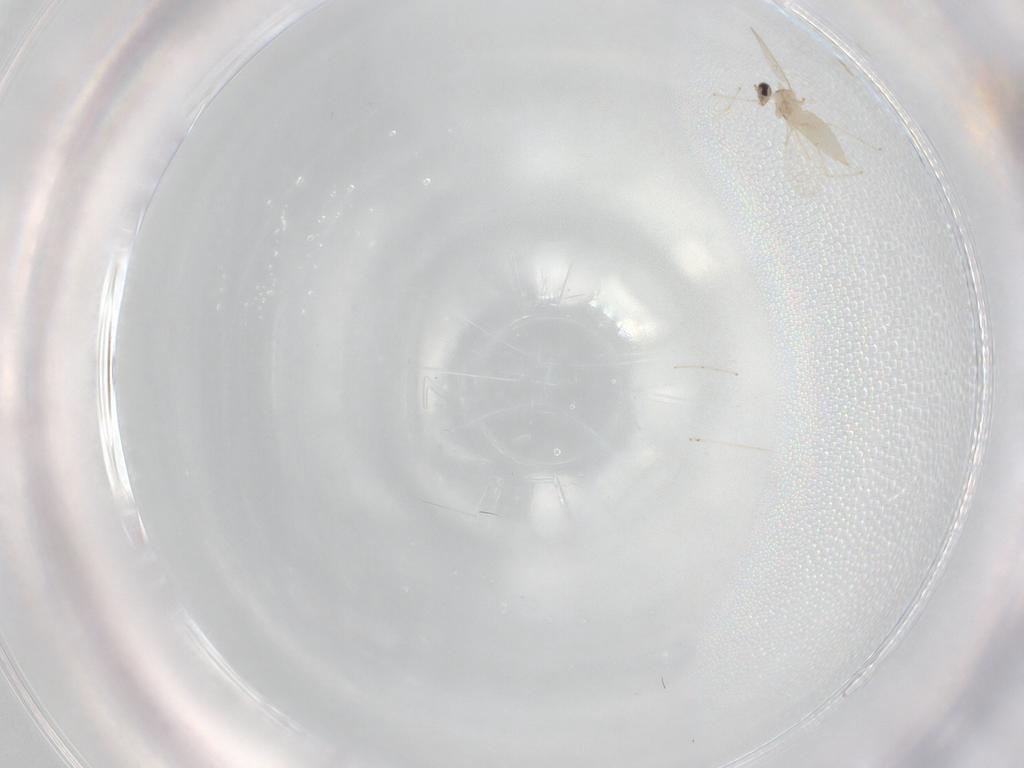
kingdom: Animalia
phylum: Arthropoda
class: Insecta
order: Diptera
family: Cecidomyiidae
